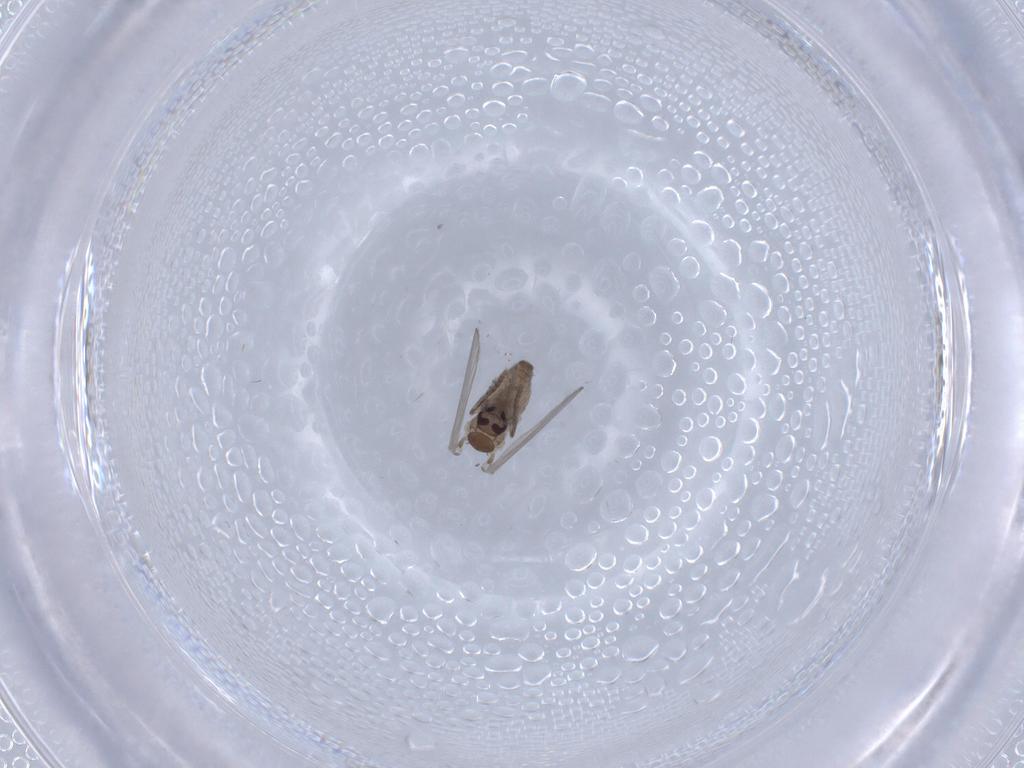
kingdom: Animalia
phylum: Arthropoda
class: Insecta
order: Diptera
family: Psychodidae
